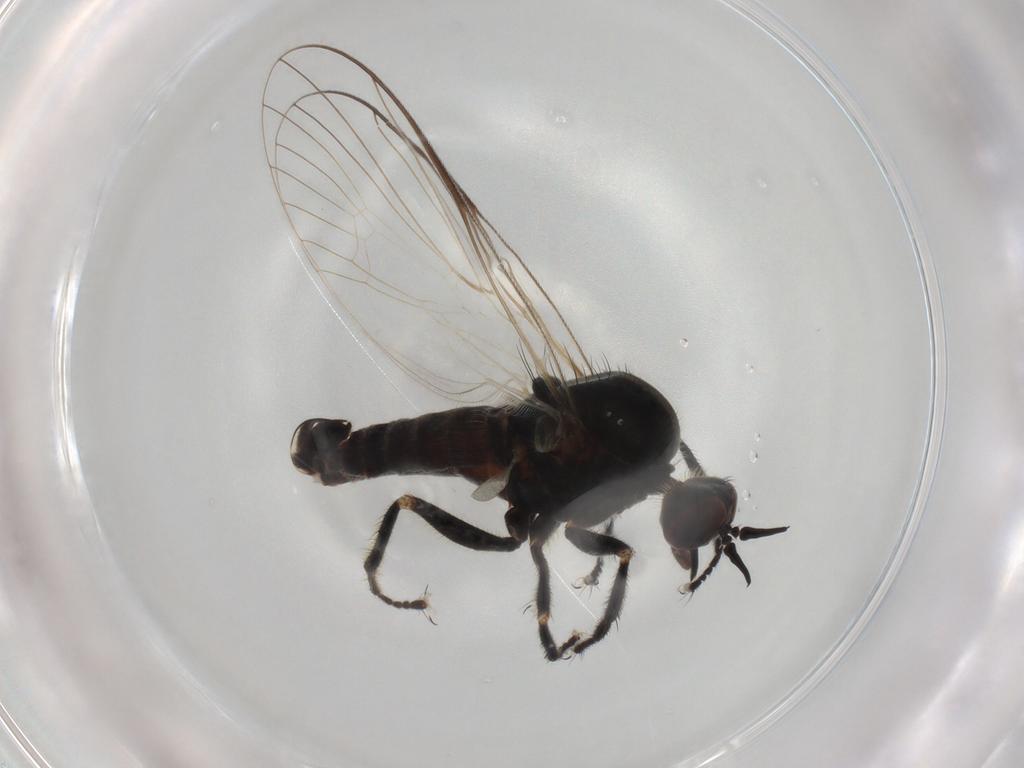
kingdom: Animalia
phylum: Arthropoda
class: Insecta
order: Diptera
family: Empididae
